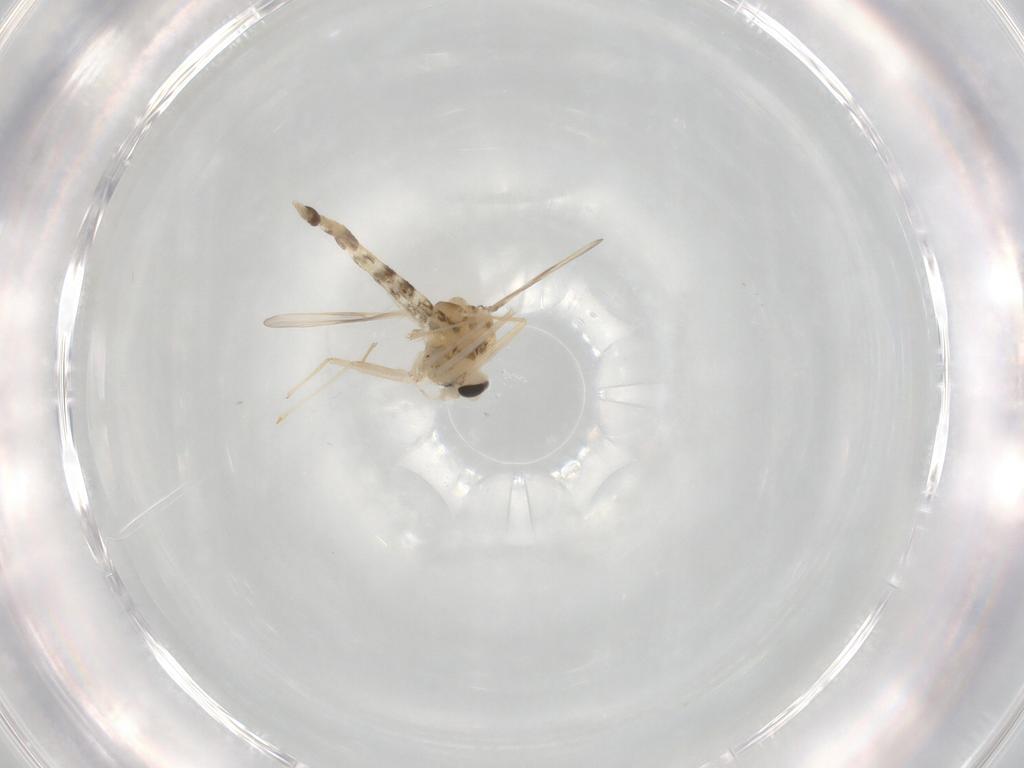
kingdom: Animalia
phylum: Arthropoda
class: Insecta
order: Diptera
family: Chironomidae
